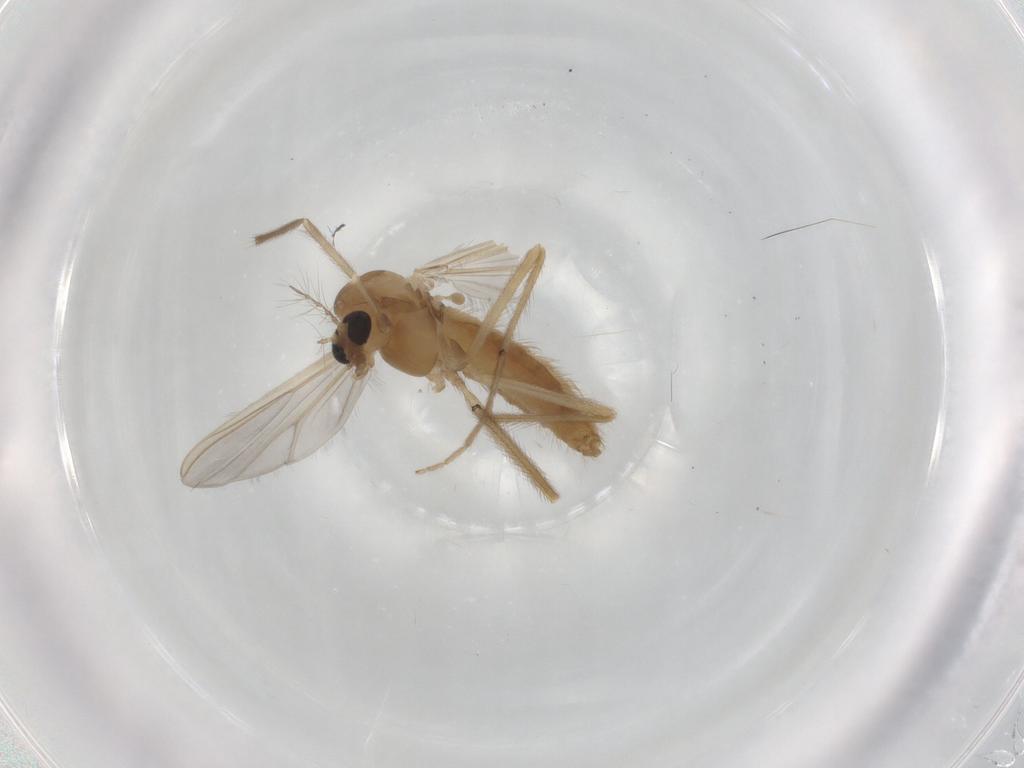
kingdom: Animalia
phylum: Arthropoda
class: Insecta
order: Diptera
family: Chironomidae
